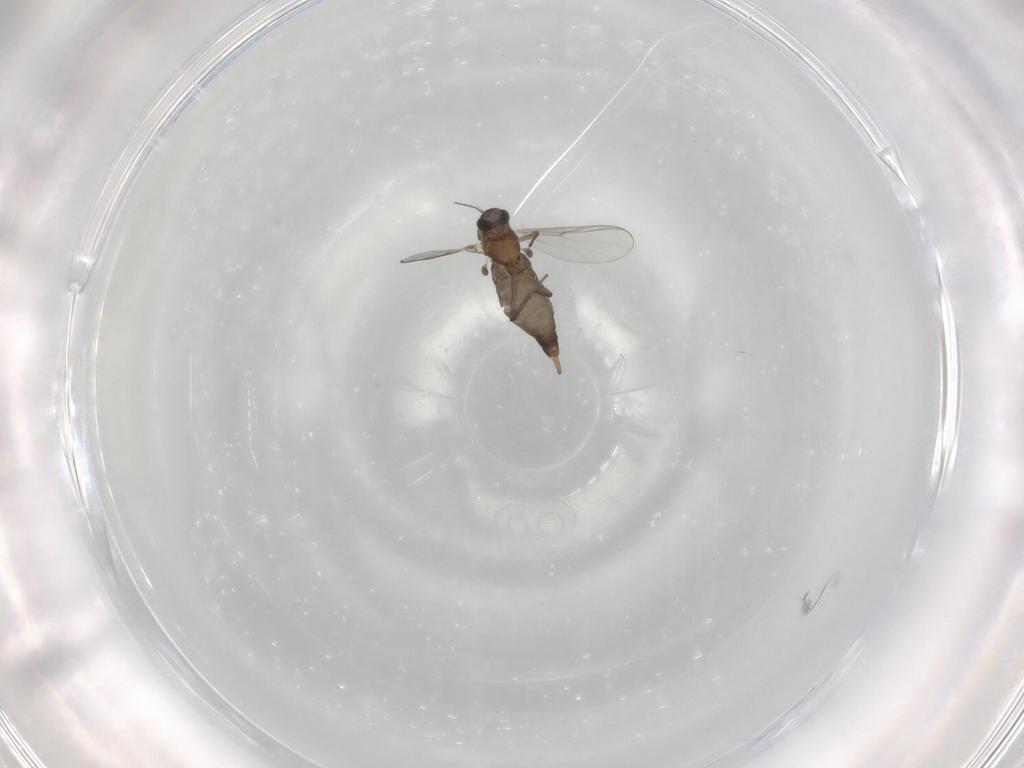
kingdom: Animalia
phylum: Arthropoda
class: Insecta
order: Diptera
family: Chironomidae
